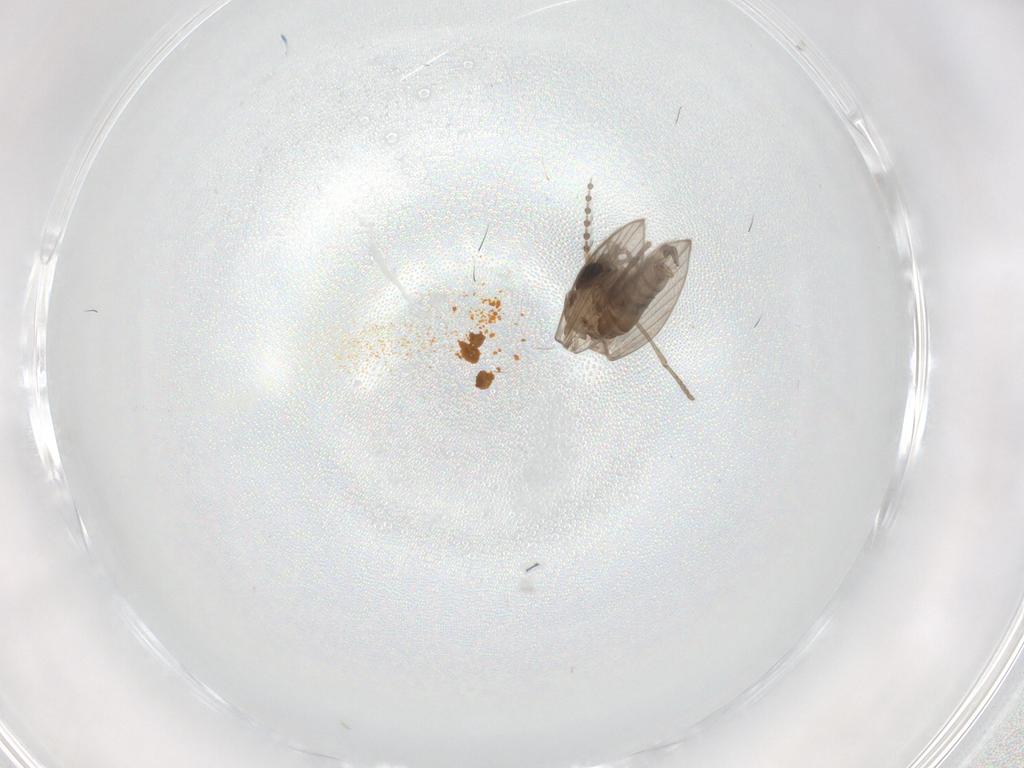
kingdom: Animalia
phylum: Arthropoda
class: Insecta
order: Diptera
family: Psychodidae
